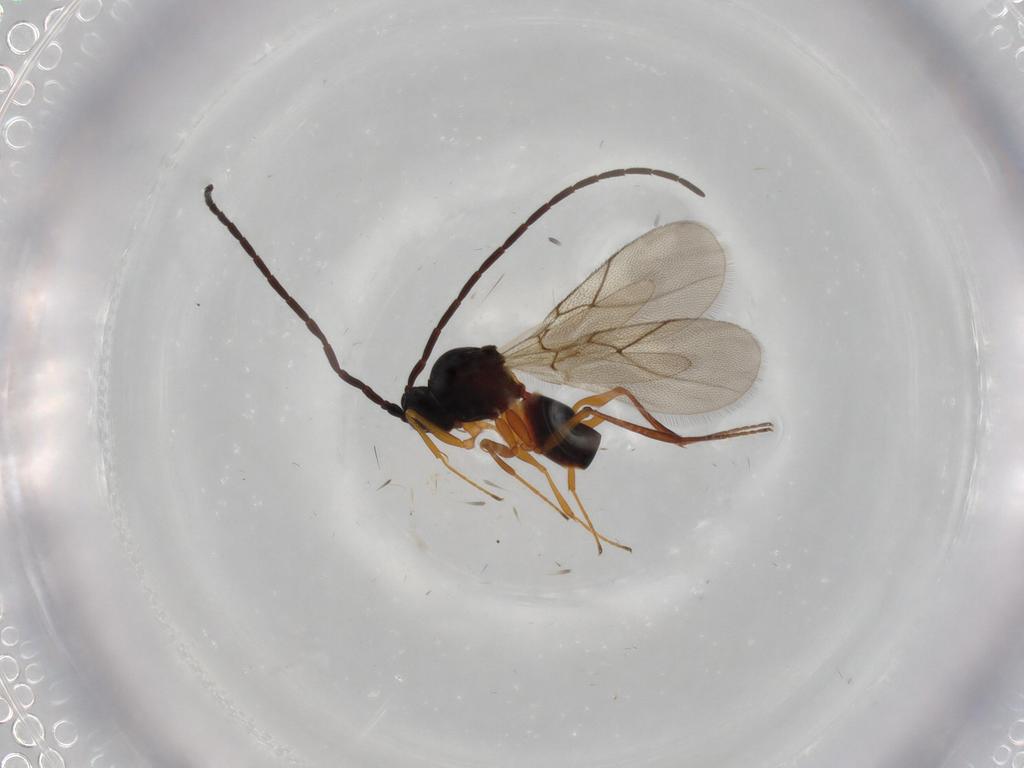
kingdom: Animalia
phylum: Arthropoda
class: Insecta
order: Hymenoptera
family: Figitidae
